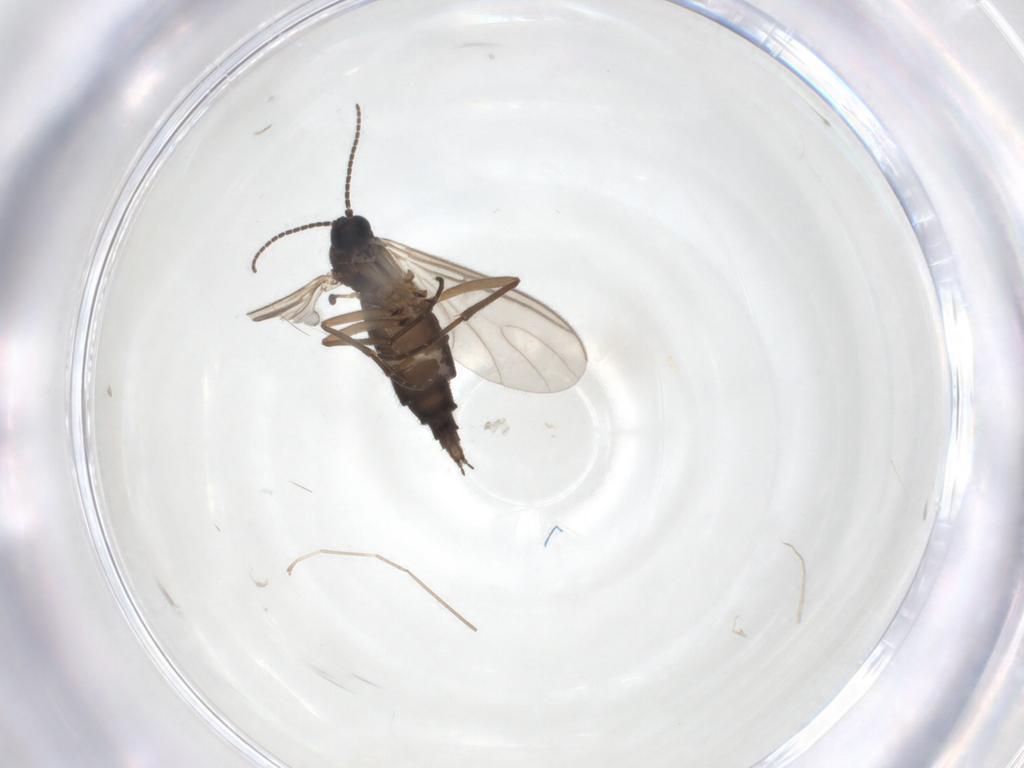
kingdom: Animalia
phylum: Arthropoda
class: Insecta
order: Diptera
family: Sciaridae
